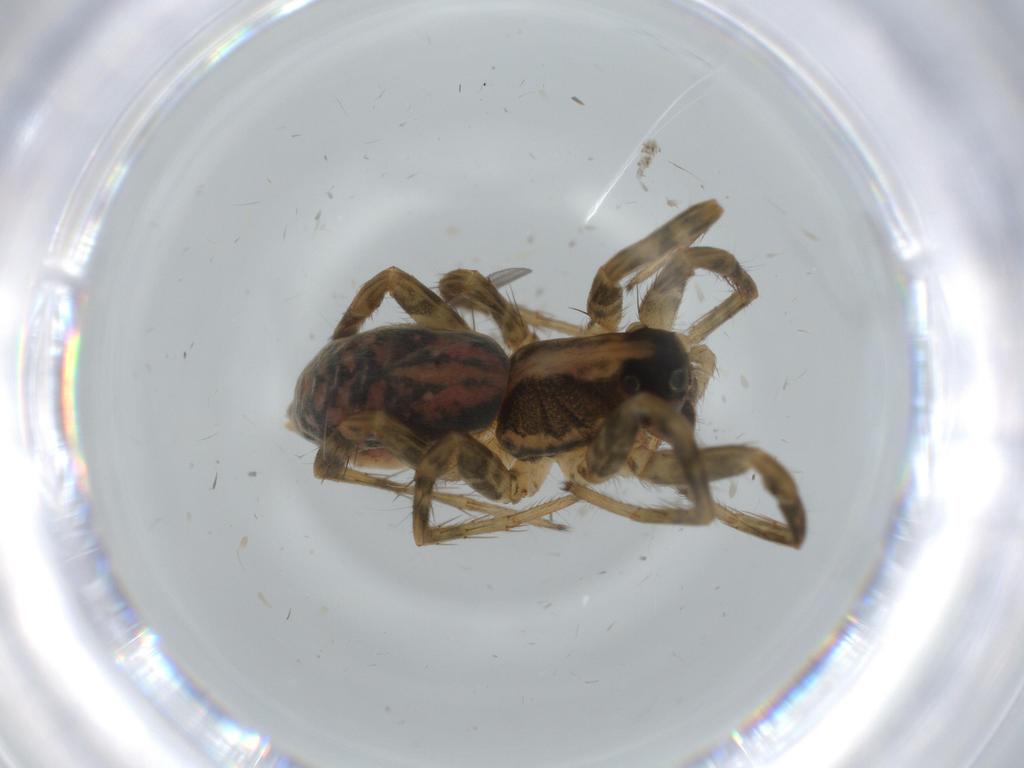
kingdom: Animalia
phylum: Arthropoda
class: Arachnida
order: Araneae
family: Lycosidae
